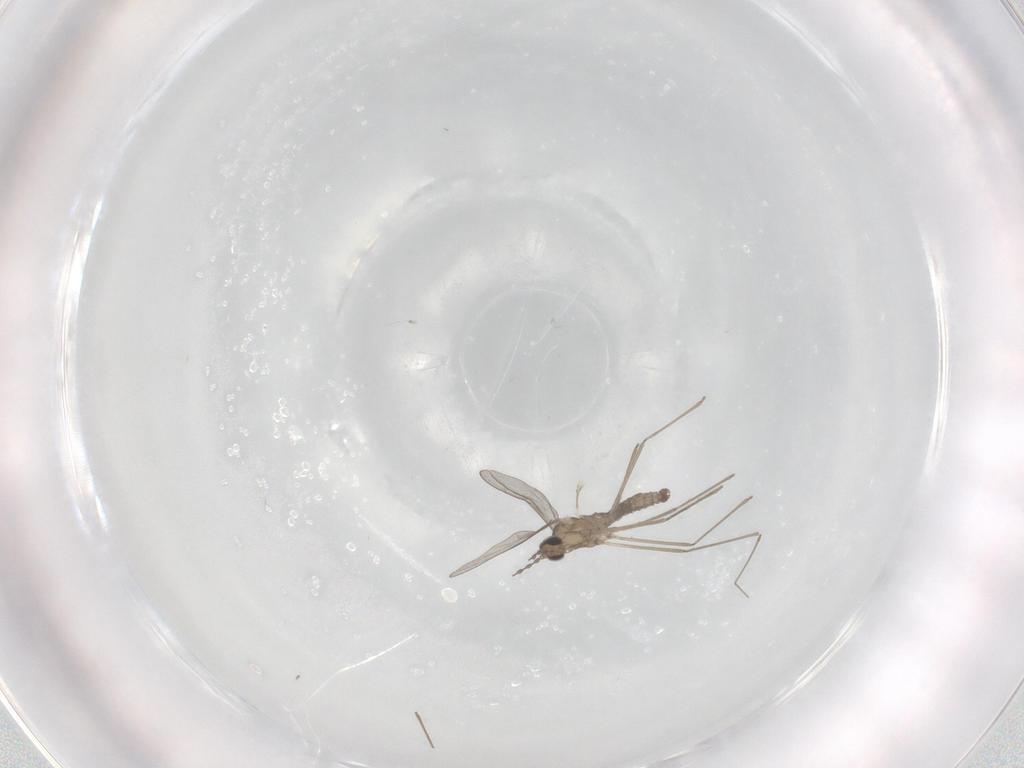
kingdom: Animalia
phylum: Arthropoda
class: Insecta
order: Diptera
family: Cecidomyiidae
